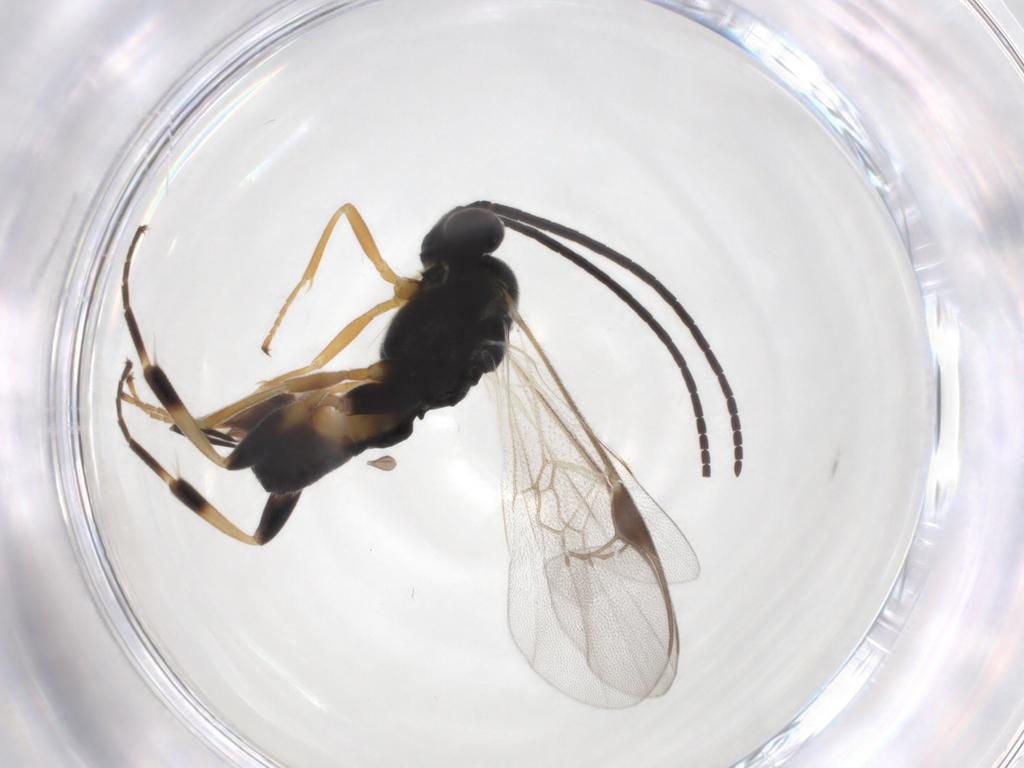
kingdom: Animalia
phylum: Arthropoda
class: Insecta
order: Hymenoptera
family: Braconidae
